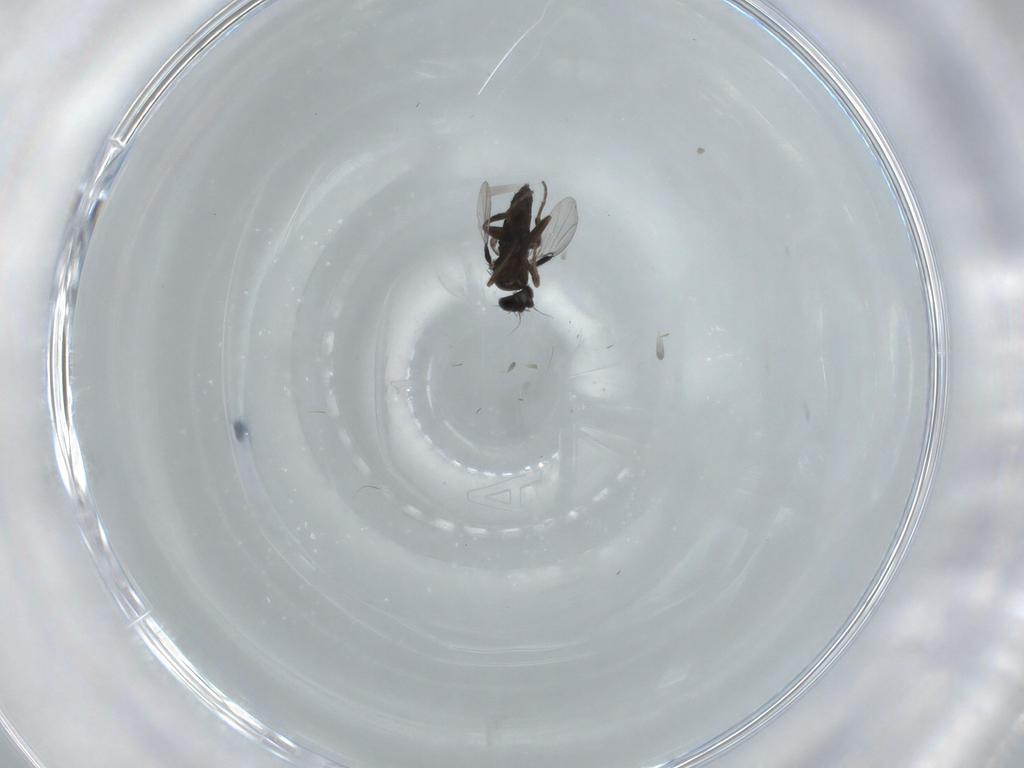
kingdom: Animalia
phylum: Arthropoda
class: Insecta
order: Diptera
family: Phoridae
